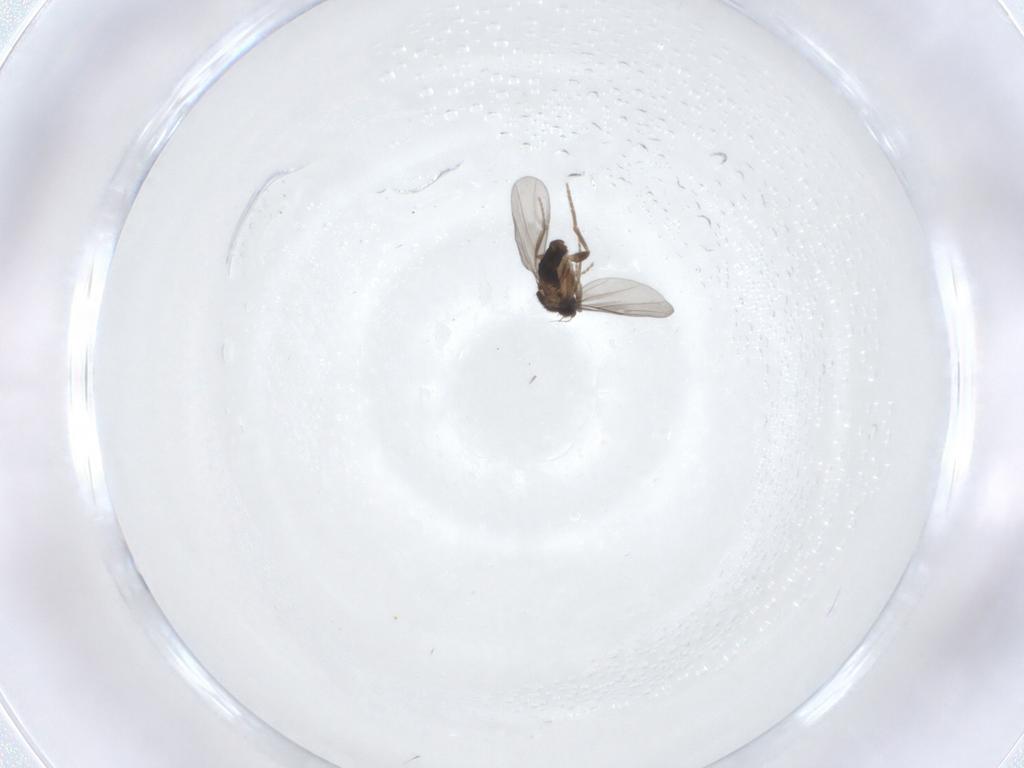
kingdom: Animalia
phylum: Arthropoda
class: Insecta
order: Diptera
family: Phoridae
